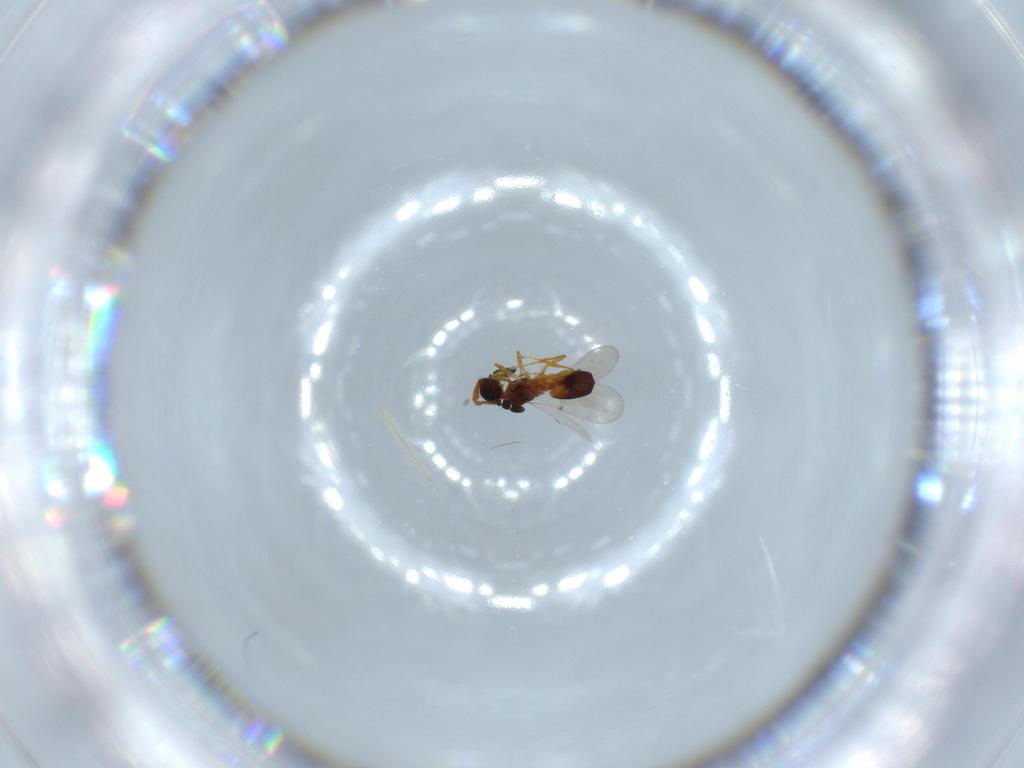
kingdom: Animalia
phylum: Arthropoda
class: Insecta
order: Hymenoptera
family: Diapriidae
